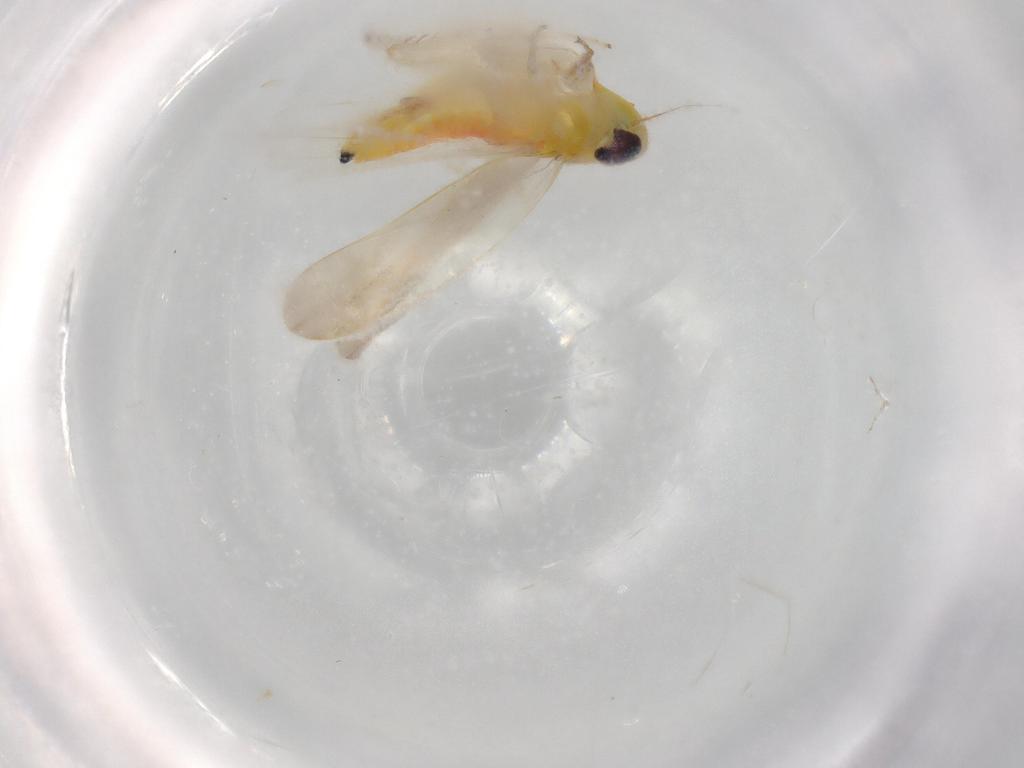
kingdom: Animalia
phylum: Arthropoda
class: Insecta
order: Hemiptera
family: Cicadellidae
